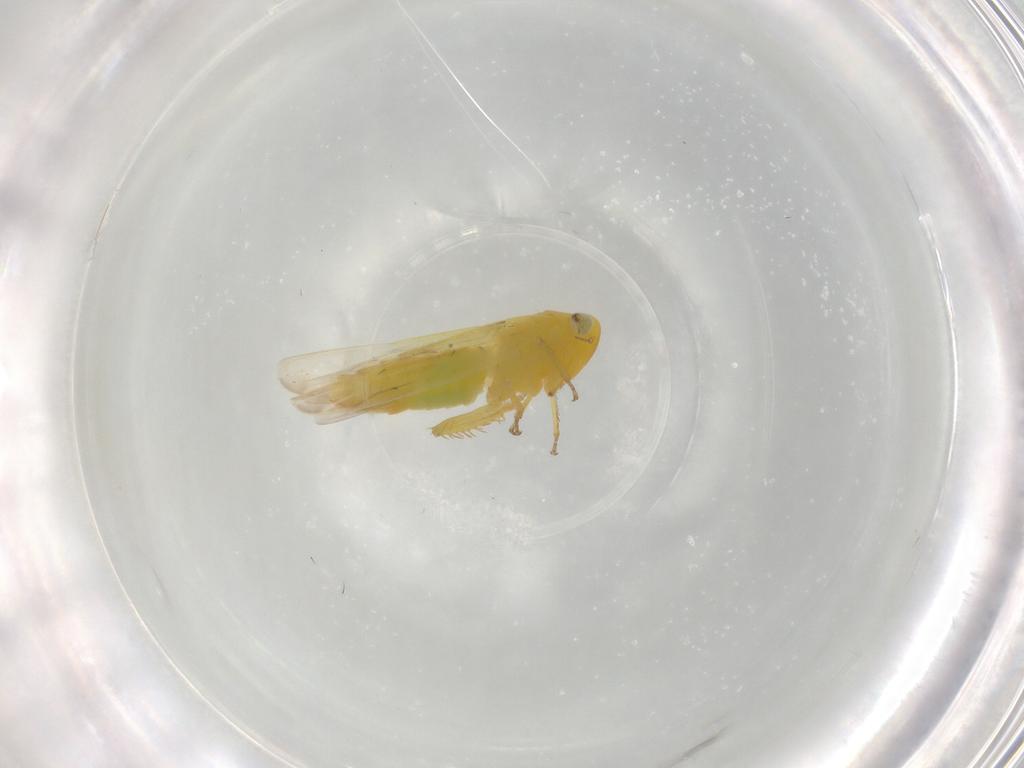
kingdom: Animalia
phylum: Arthropoda
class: Insecta
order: Hemiptera
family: Cicadellidae
